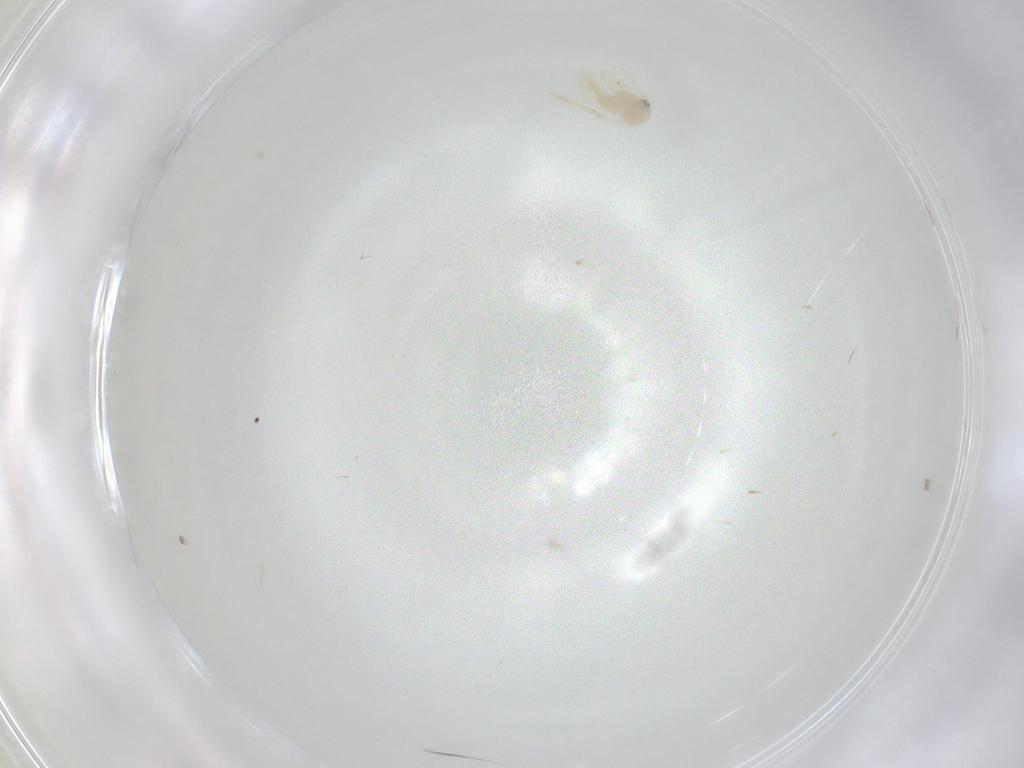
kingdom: Animalia
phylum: Arthropoda
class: Insecta
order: Hemiptera
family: Aleyrodidae
